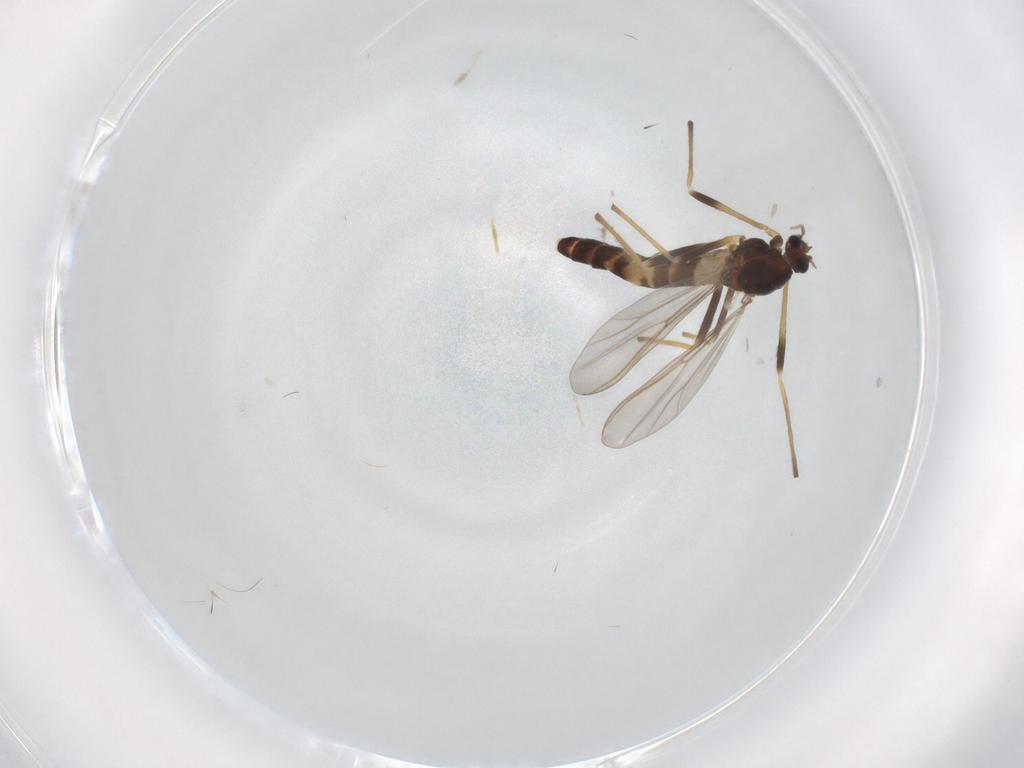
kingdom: Animalia
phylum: Arthropoda
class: Insecta
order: Diptera
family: Chironomidae
